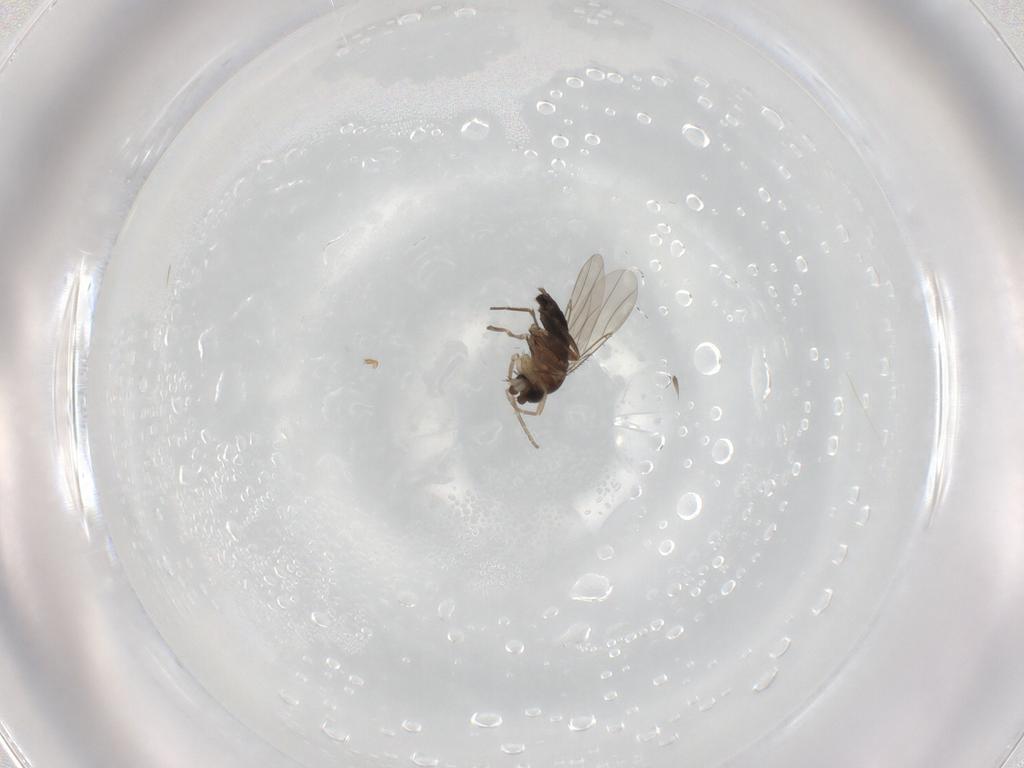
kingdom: Animalia
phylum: Arthropoda
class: Insecta
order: Diptera
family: Phoridae
